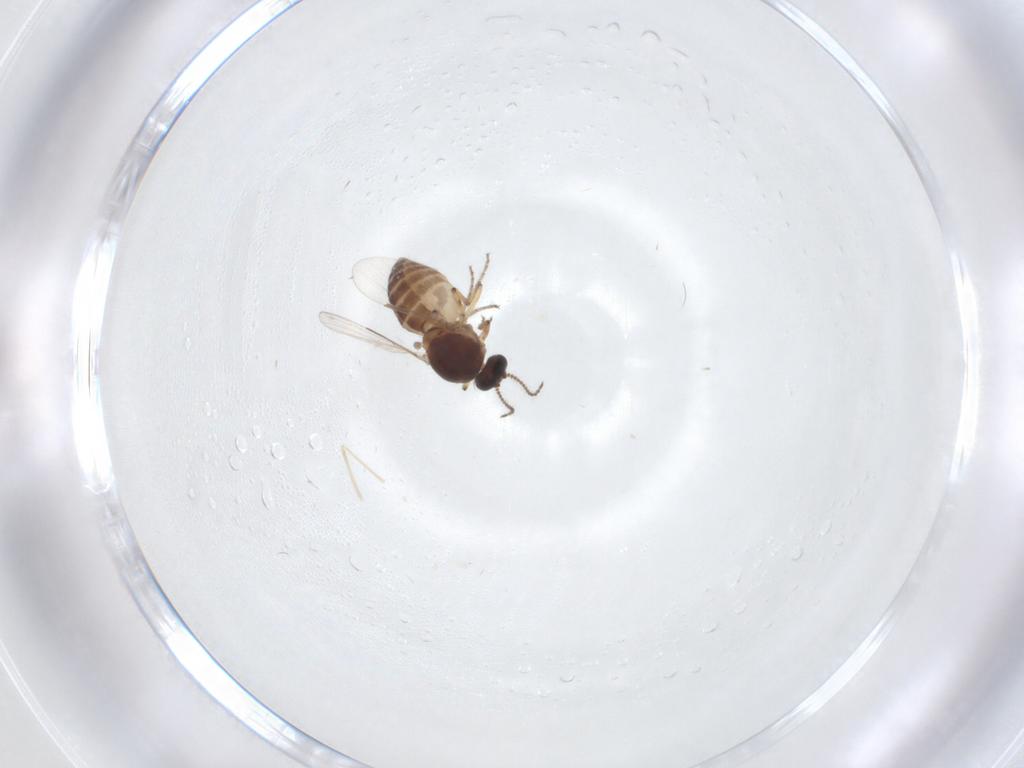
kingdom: Animalia
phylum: Arthropoda
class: Insecta
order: Diptera
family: Ceratopogonidae
